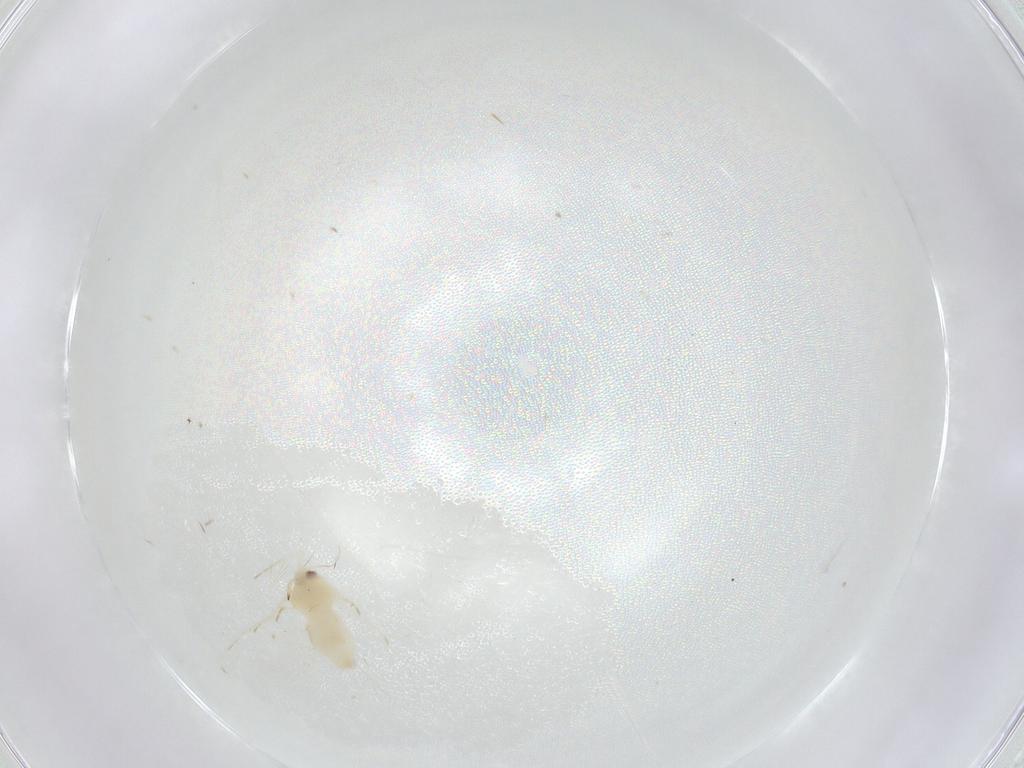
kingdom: Animalia
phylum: Arthropoda
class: Insecta
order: Hemiptera
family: Aleyrodidae
